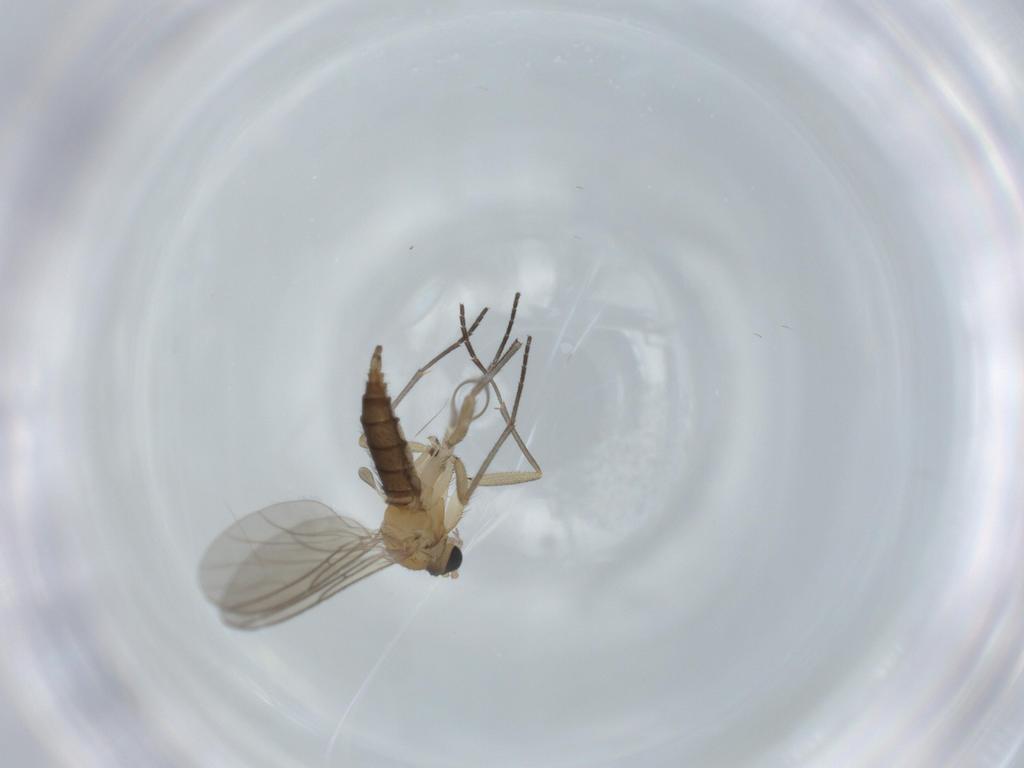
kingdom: Animalia
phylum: Arthropoda
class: Insecta
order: Diptera
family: Sciaridae
